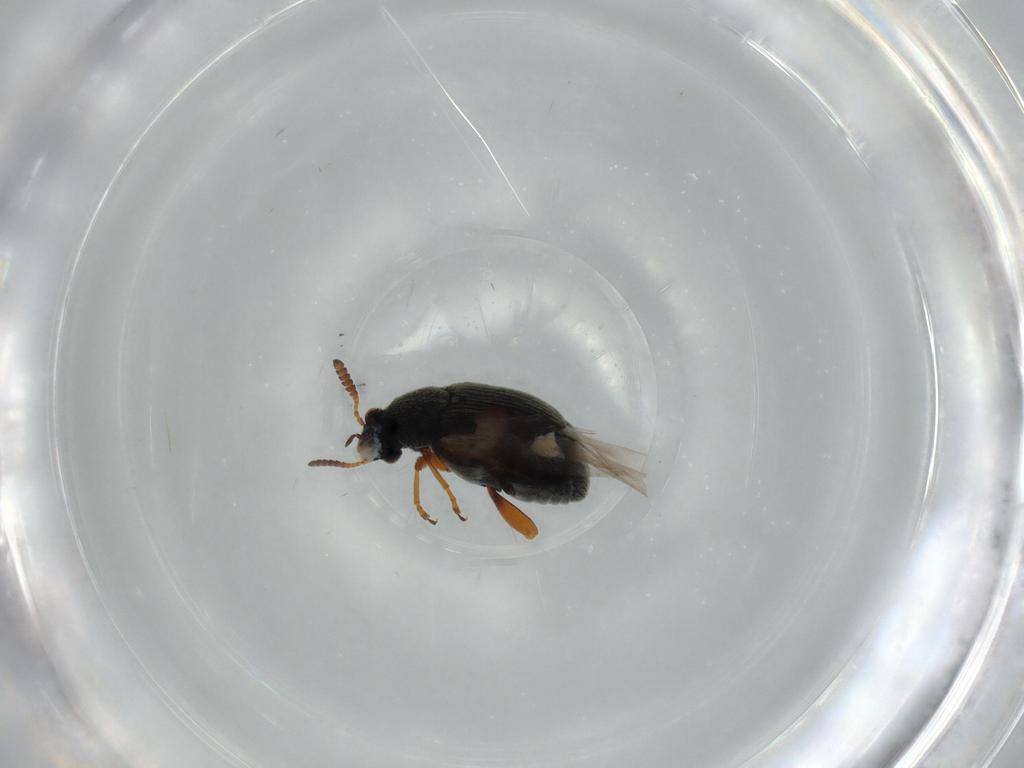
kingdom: Animalia
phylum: Arthropoda
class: Insecta
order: Coleoptera
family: Chrysomelidae
